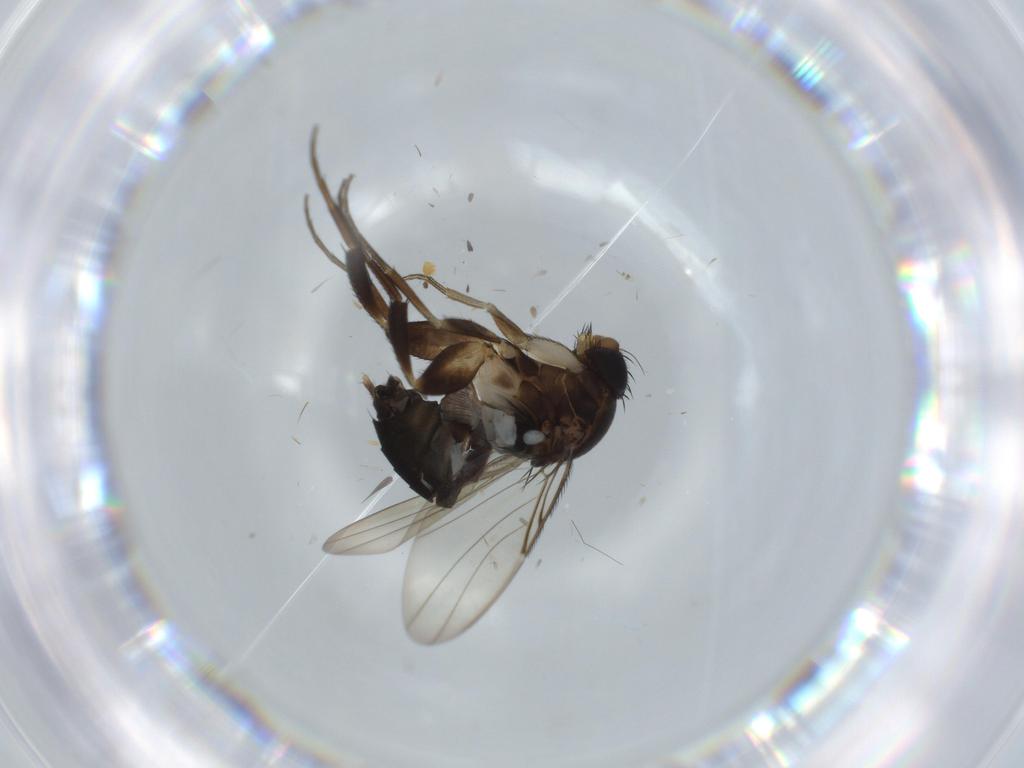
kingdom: Animalia
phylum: Arthropoda
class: Insecta
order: Diptera
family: Phoridae
